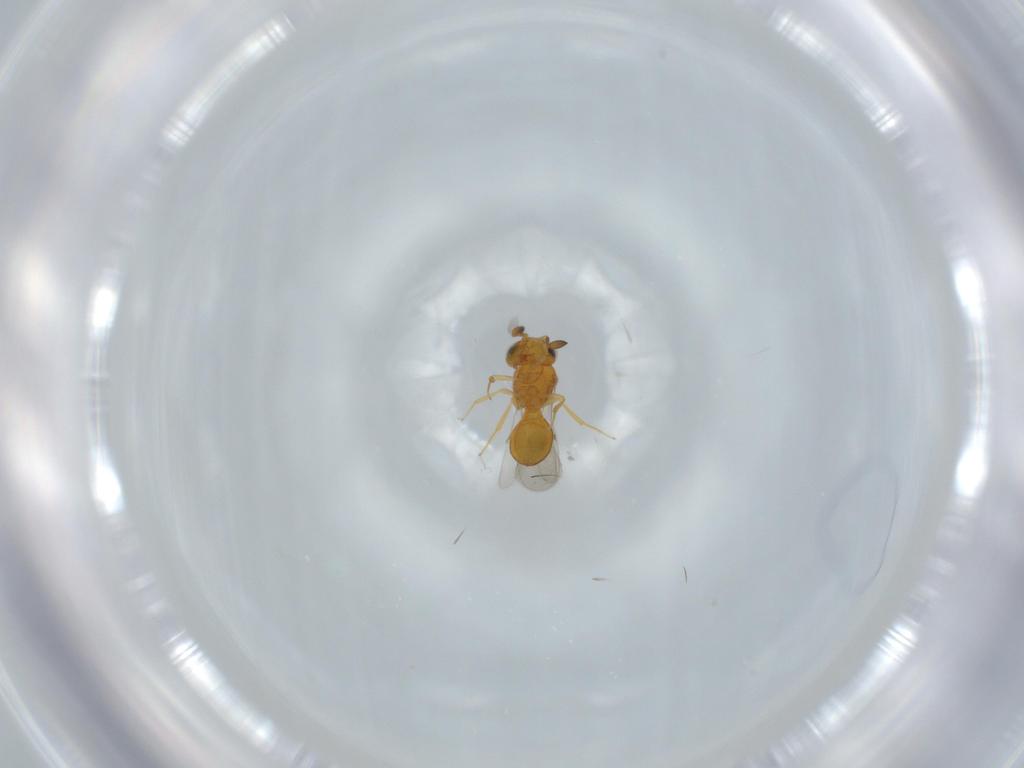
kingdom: Animalia
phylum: Arthropoda
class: Insecta
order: Hymenoptera
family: Scelionidae
